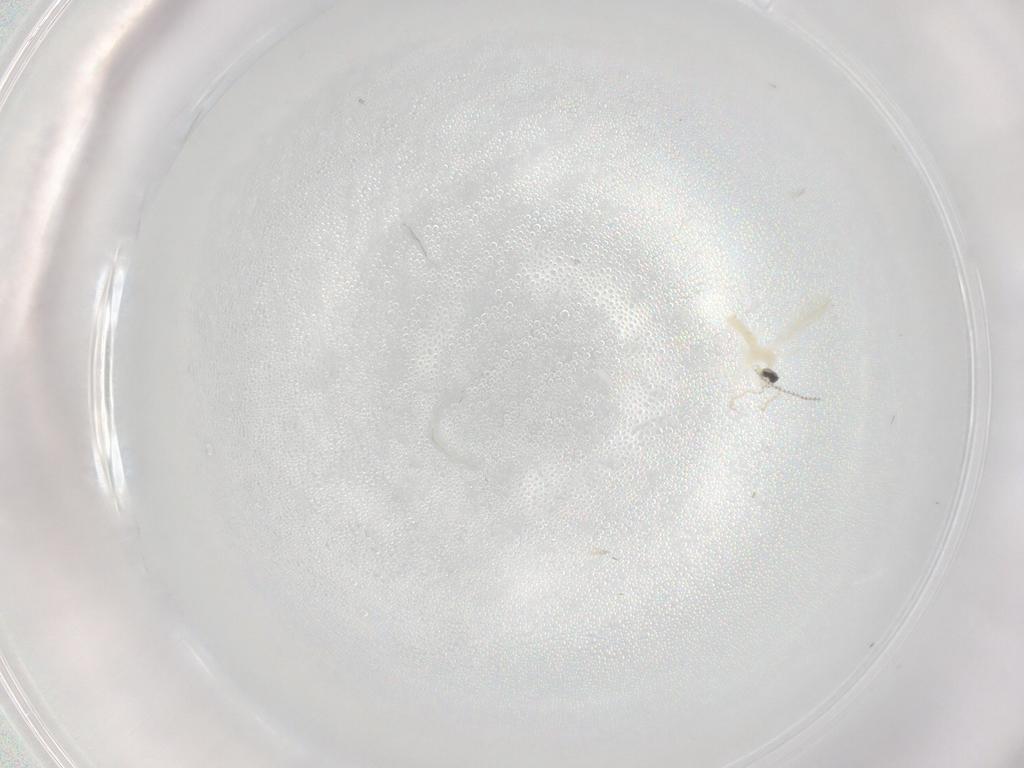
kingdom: Animalia
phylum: Arthropoda
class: Insecta
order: Diptera
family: Cecidomyiidae
